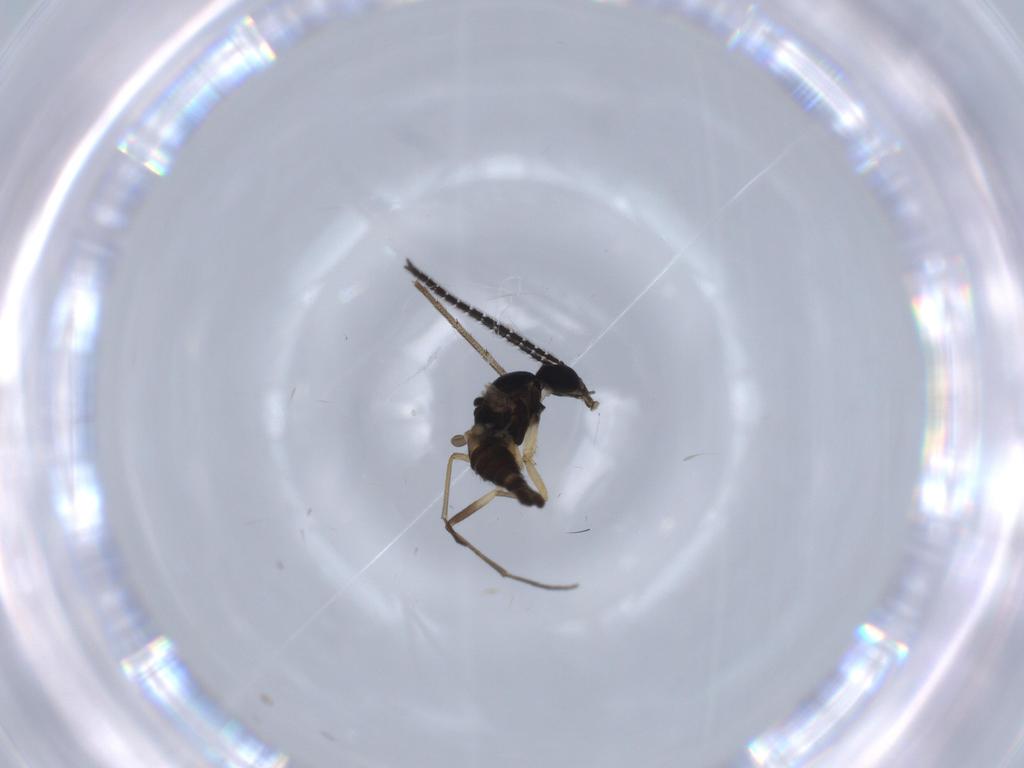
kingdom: Animalia
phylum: Arthropoda
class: Insecta
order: Diptera
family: Sciaridae
